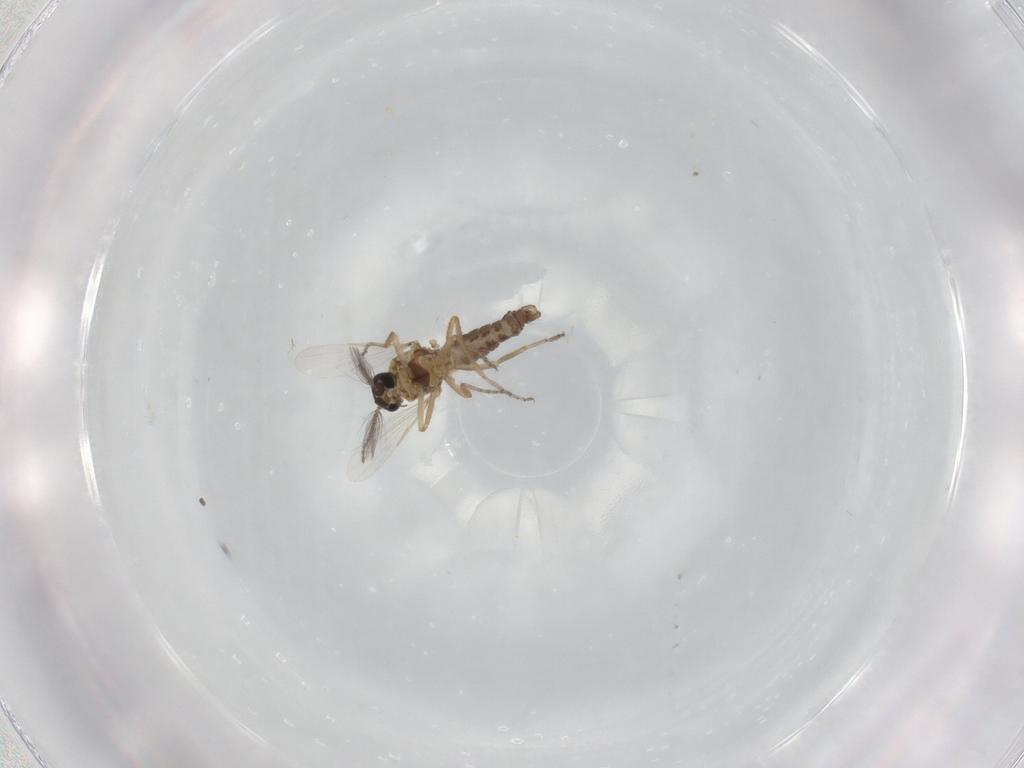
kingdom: Animalia
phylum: Arthropoda
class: Insecta
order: Diptera
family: Ceratopogonidae
